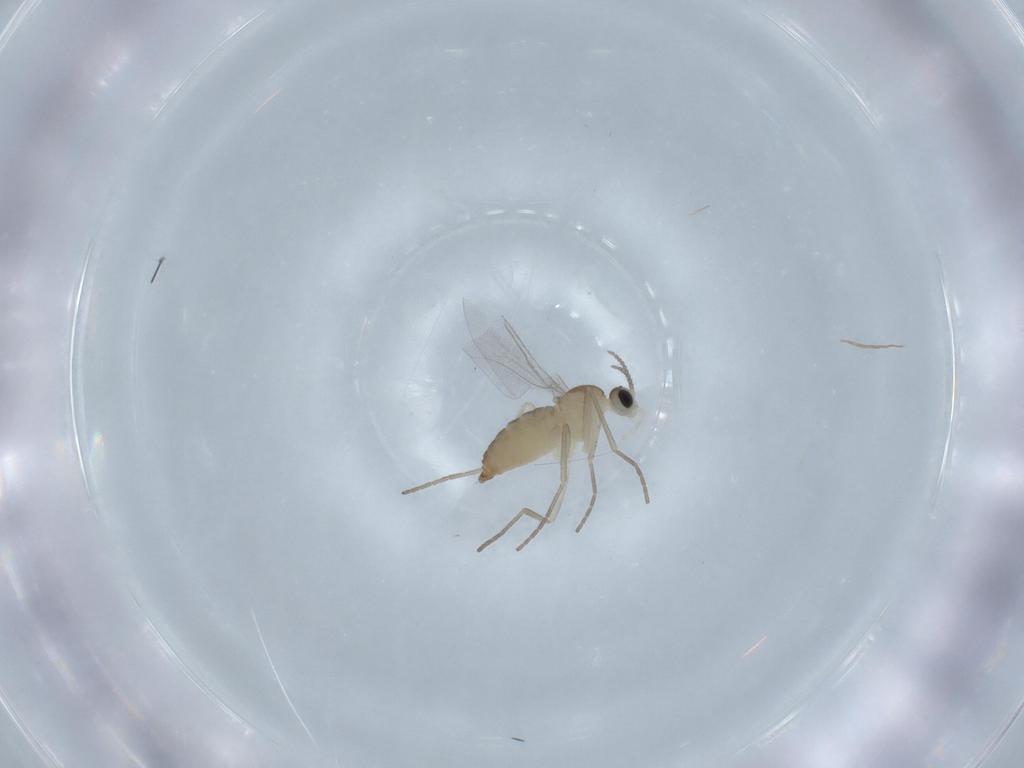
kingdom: Animalia
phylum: Arthropoda
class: Insecta
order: Diptera
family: Cecidomyiidae
